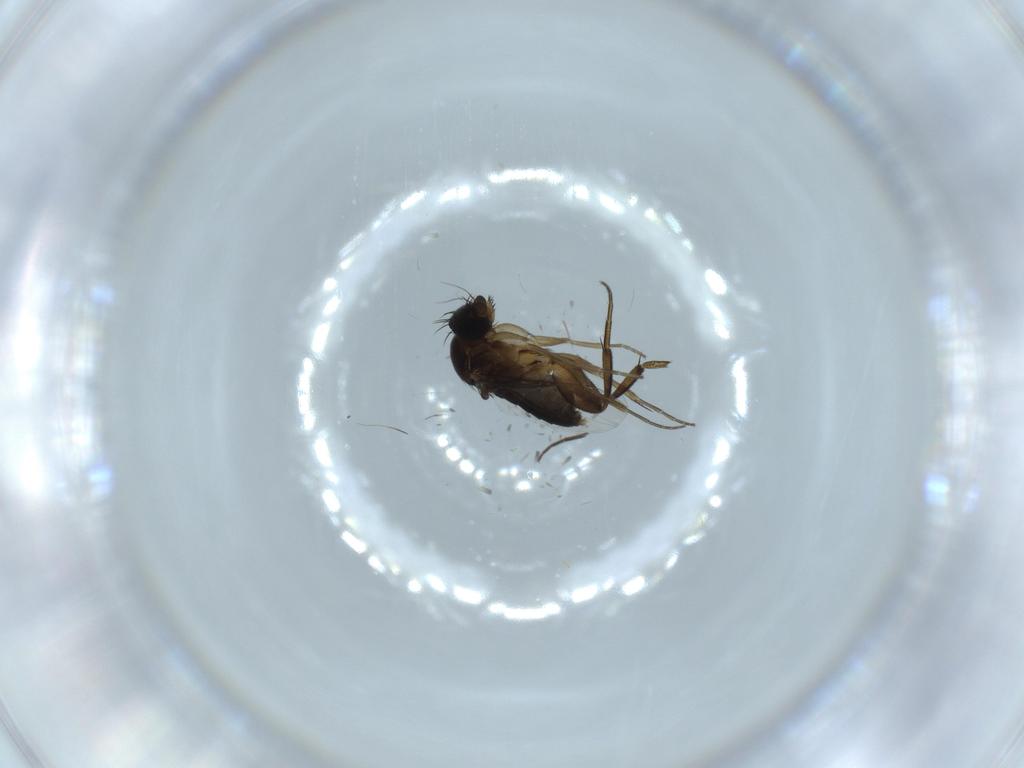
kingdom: Animalia
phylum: Arthropoda
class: Insecta
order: Diptera
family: Phoridae
